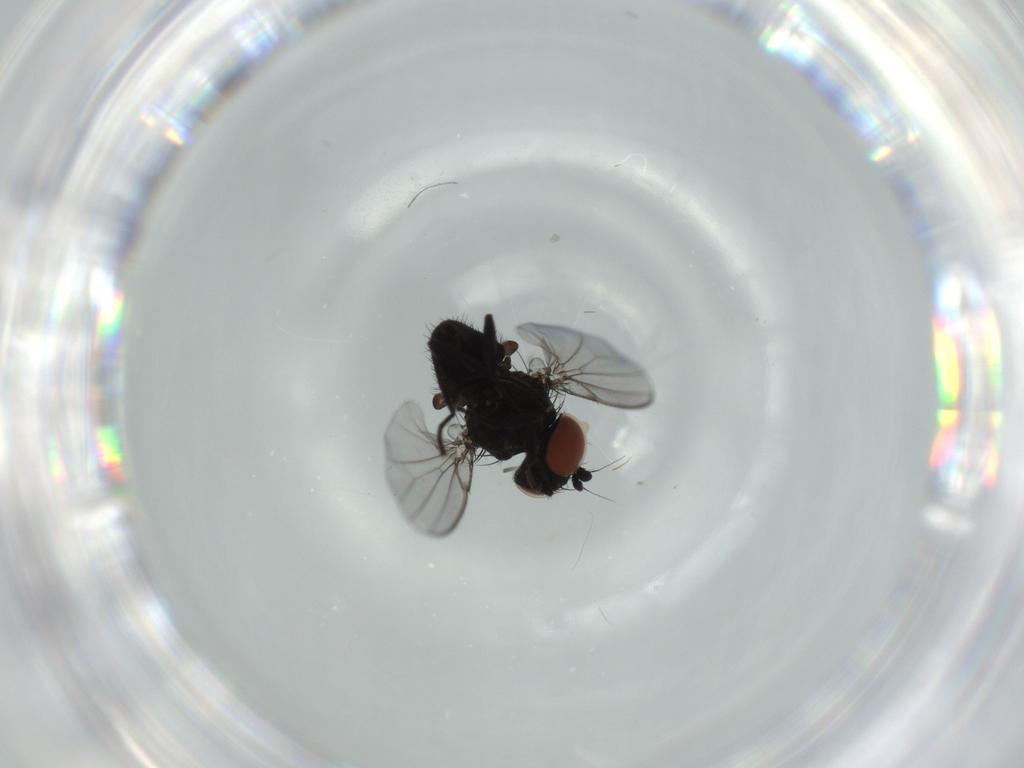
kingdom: Animalia
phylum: Arthropoda
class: Insecta
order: Diptera
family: Milichiidae
